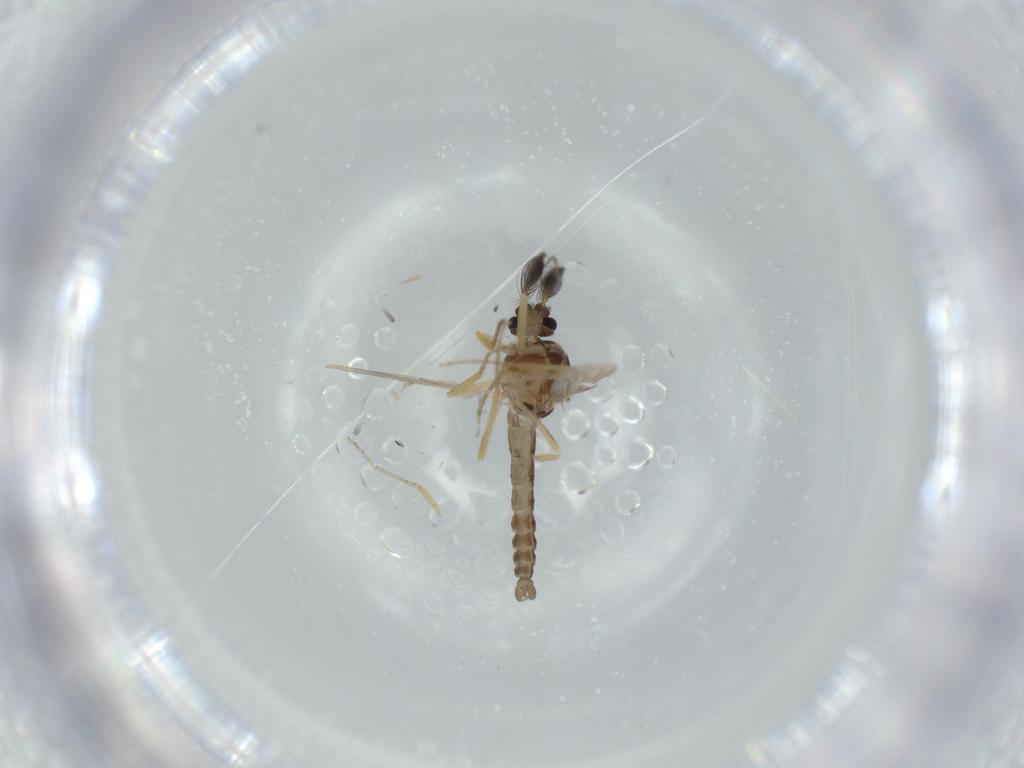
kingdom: Animalia
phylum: Arthropoda
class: Insecta
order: Diptera
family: Ceratopogonidae
